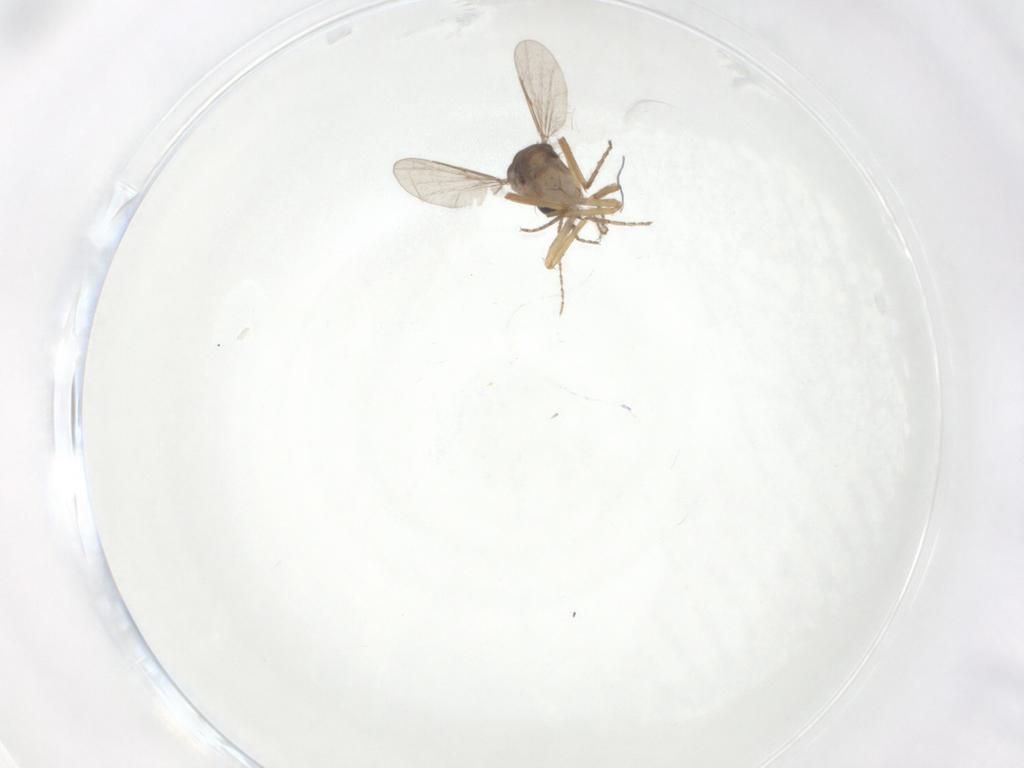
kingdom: Animalia
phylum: Arthropoda
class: Insecta
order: Diptera
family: Ceratopogonidae
